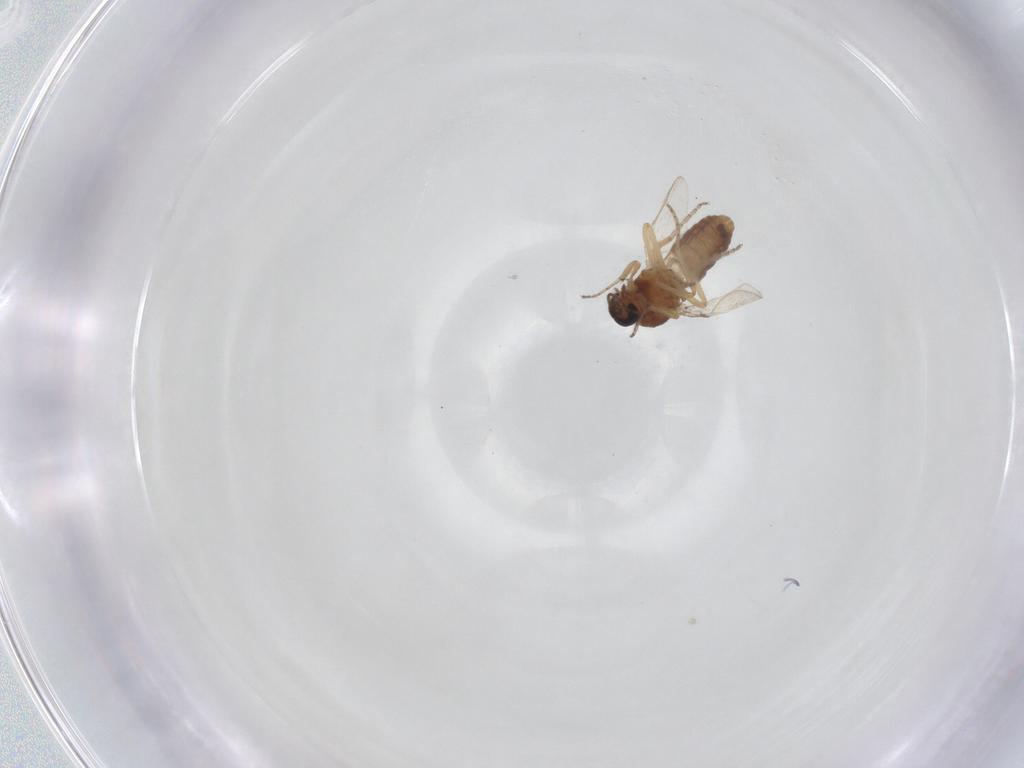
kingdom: Animalia
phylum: Arthropoda
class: Insecta
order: Diptera
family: Ceratopogonidae
